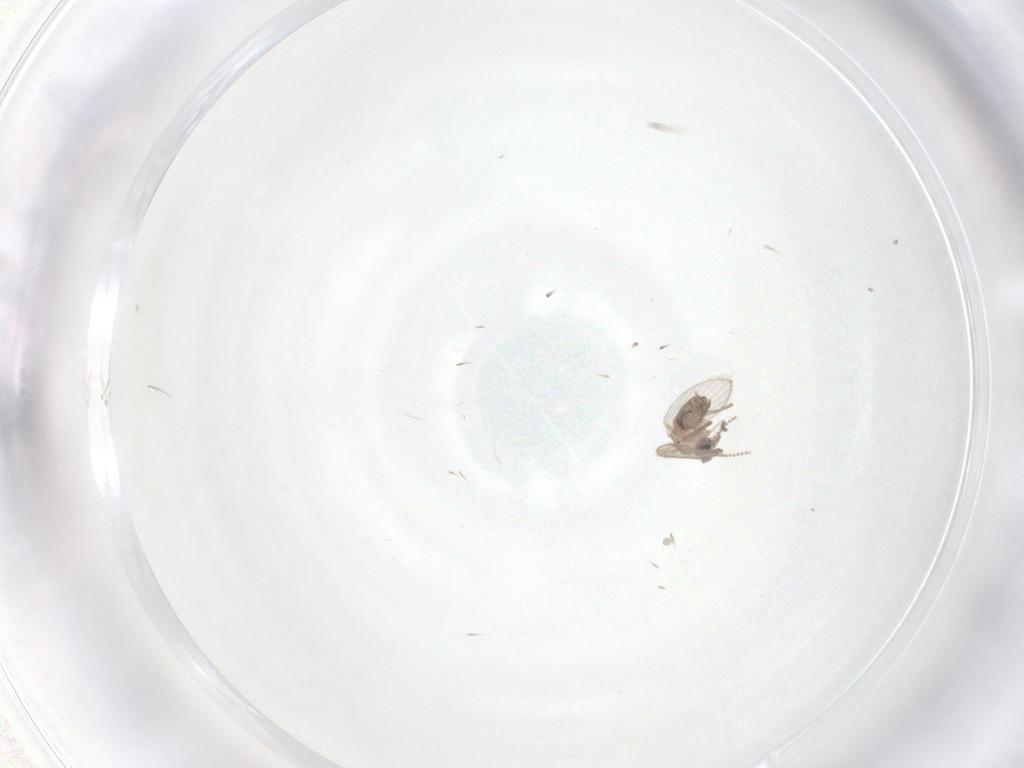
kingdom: Animalia
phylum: Arthropoda
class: Insecta
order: Diptera
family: Psychodidae
